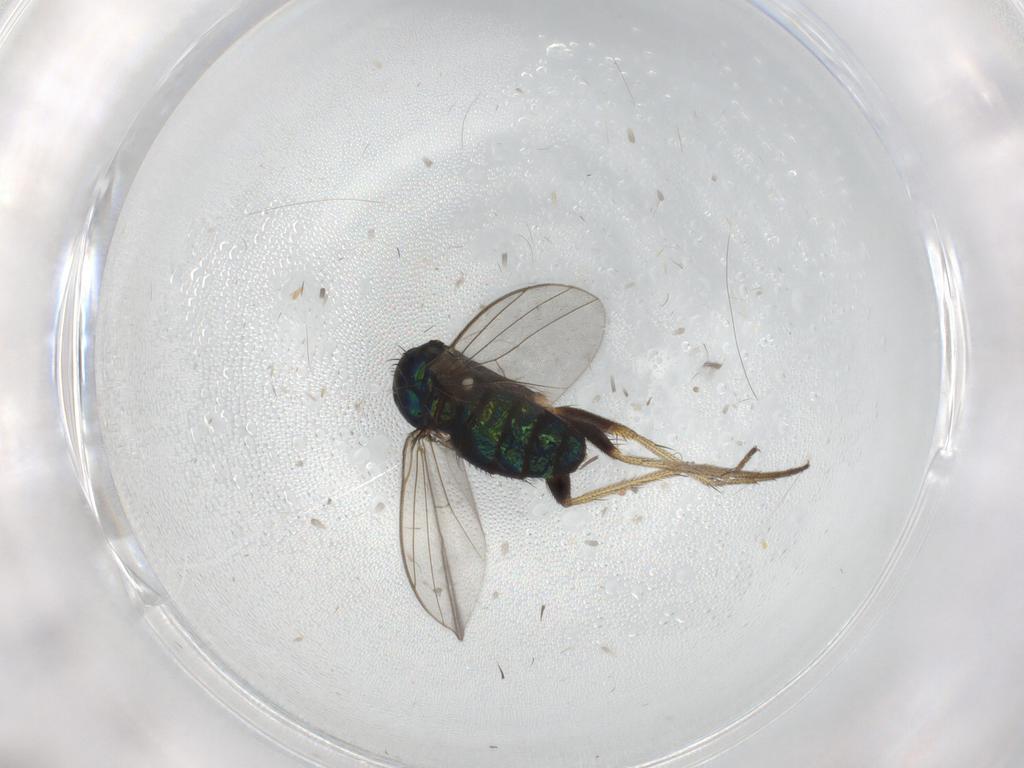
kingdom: Animalia
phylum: Arthropoda
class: Insecta
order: Diptera
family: Dolichopodidae
